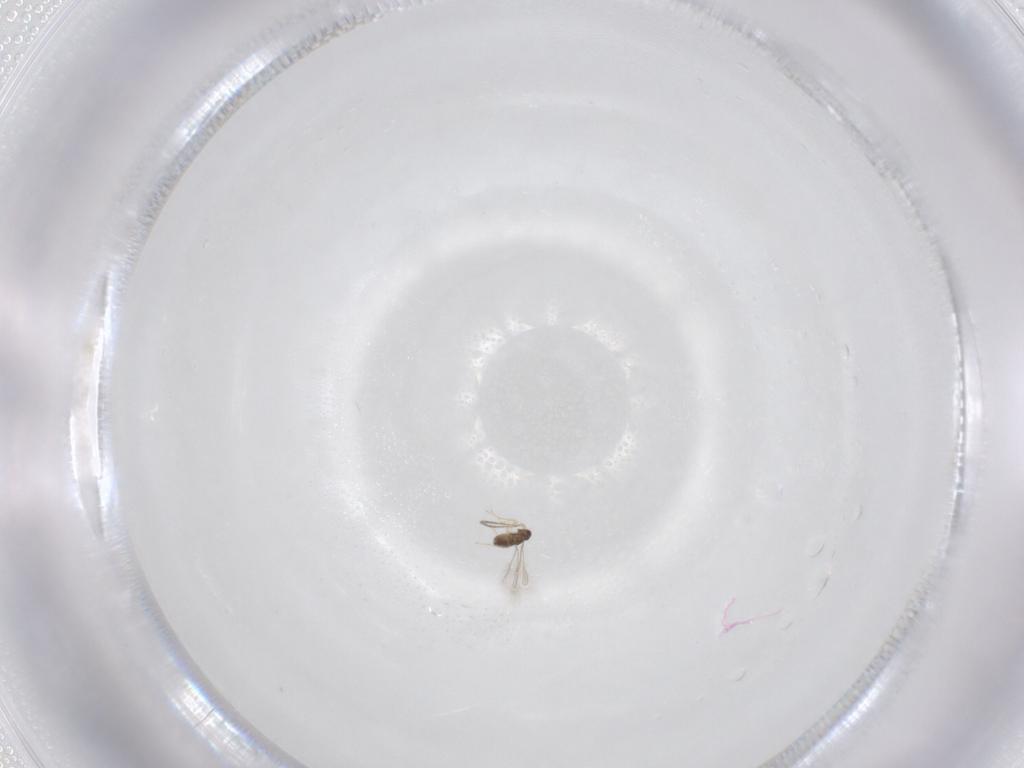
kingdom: Animalia
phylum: Arthropoda
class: Insecta
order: Hymenoptera
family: Mymaridae
